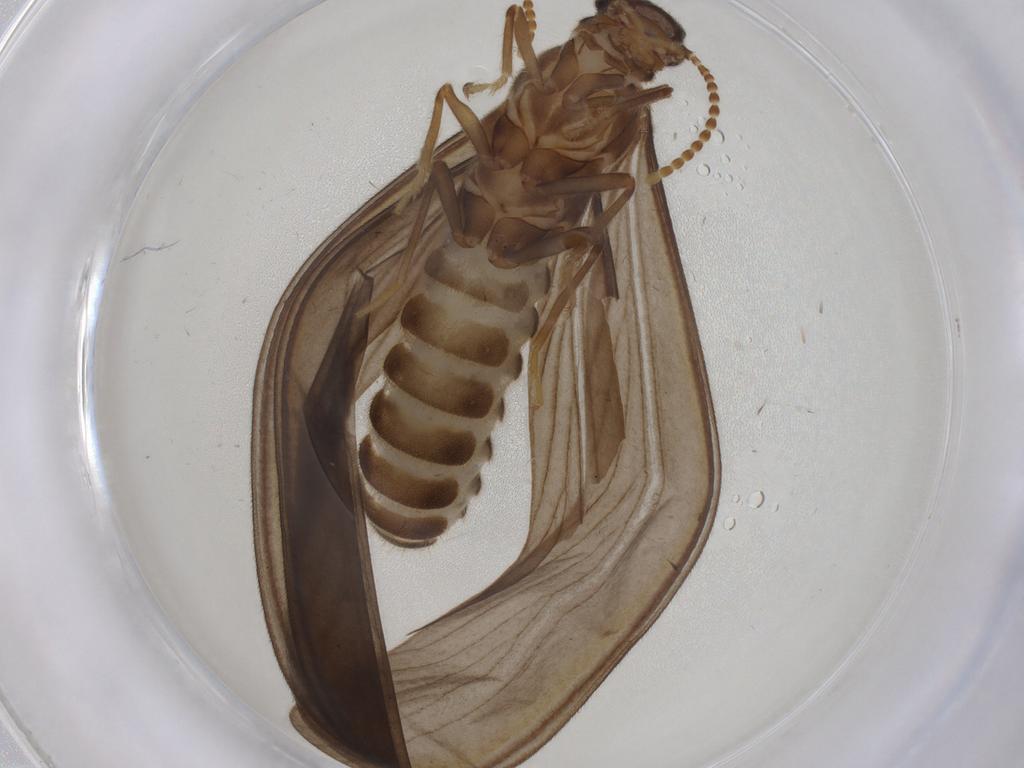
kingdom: Animalia
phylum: Arthropoda
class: Insecta
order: Blattodea
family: Termitidae
